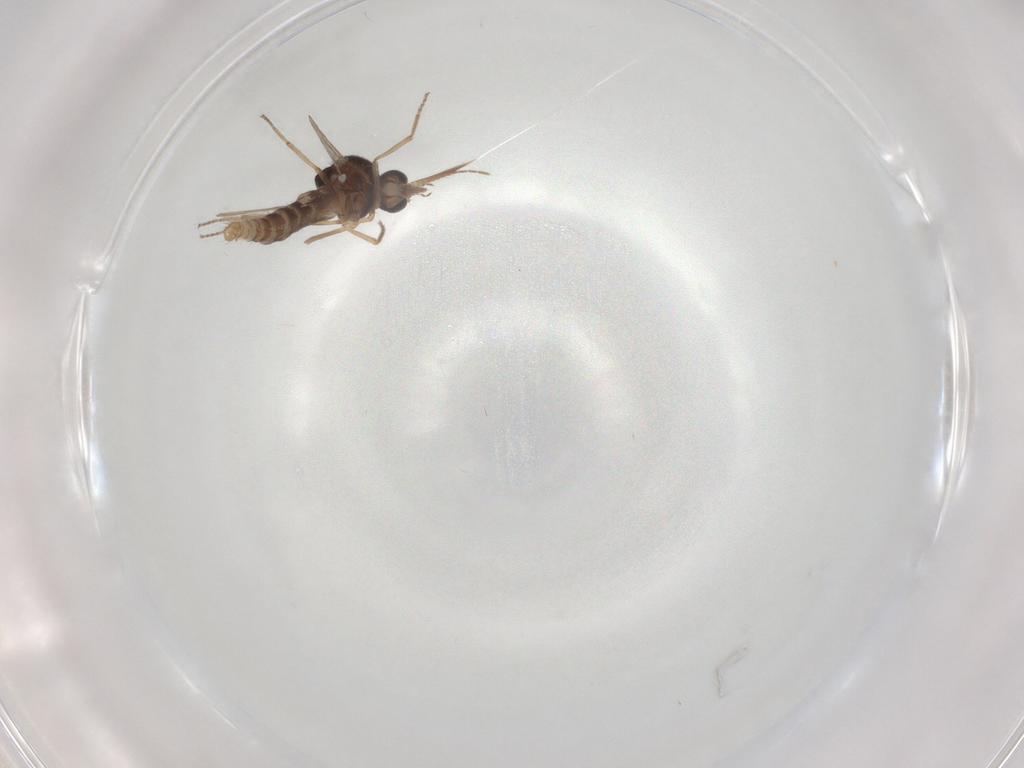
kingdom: Animalia
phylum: Arthropoda
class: Insecta
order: Diptera
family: Ceratopogonidae
